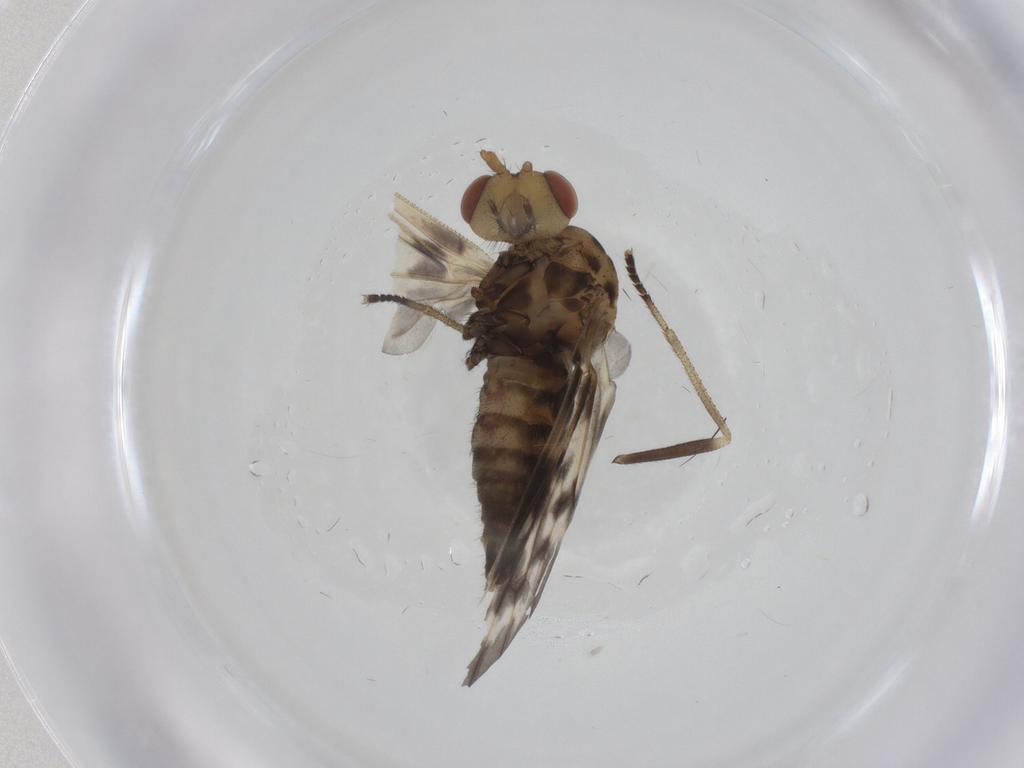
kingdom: Animalia
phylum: Arthropoda
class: Insecta
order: Diptera
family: Austroleptidae
